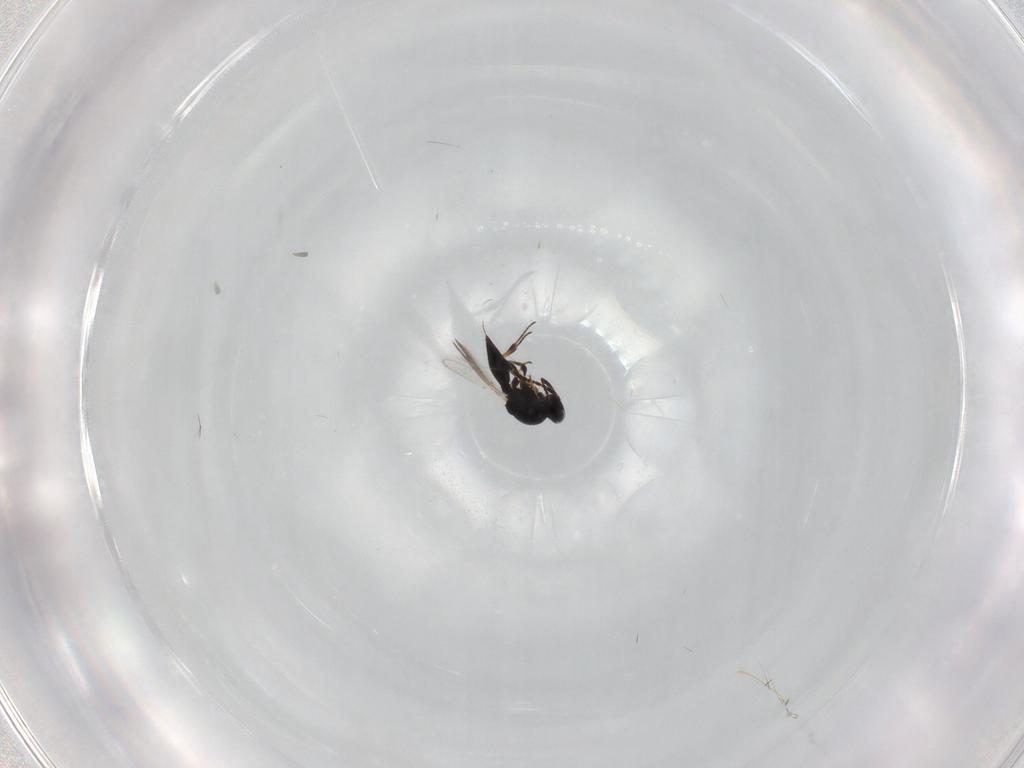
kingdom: Animalia
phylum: Arthropoda
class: Insecta
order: Hymenoptera
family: Platygastridae
